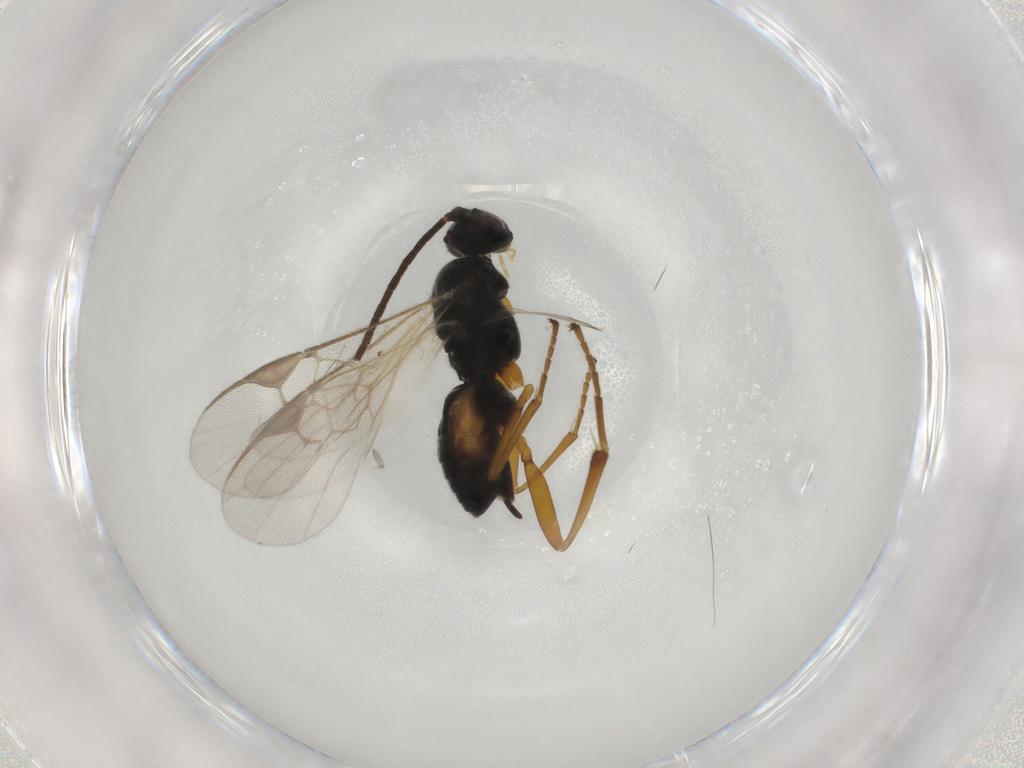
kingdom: Animalia
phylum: Arthropoda
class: Insecta
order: Hymenoptera
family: Braconidae
